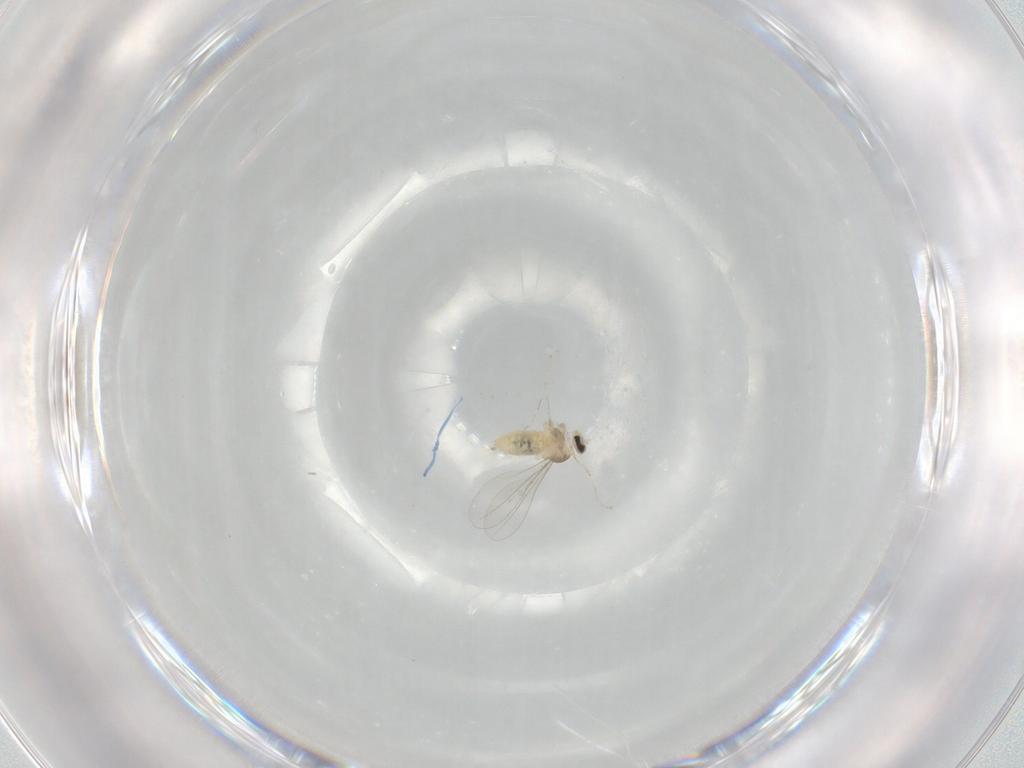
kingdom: Animalia
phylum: Arthropoda
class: Insecta
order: Diptera
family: Cecidomyiidae
